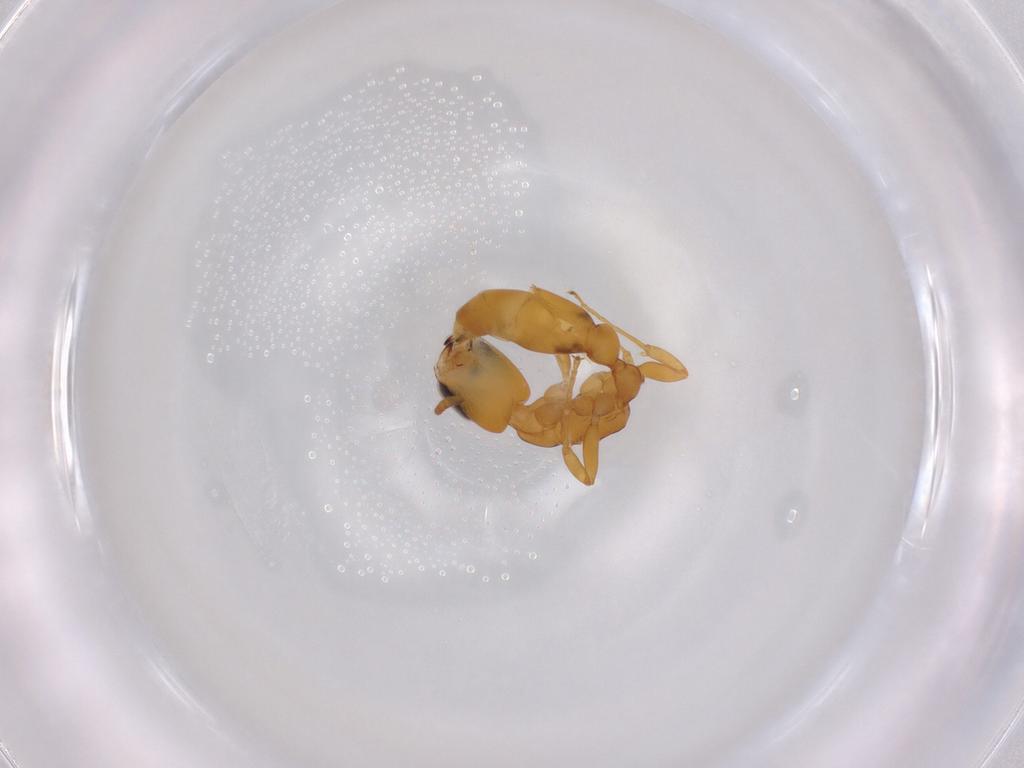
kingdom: Animalia
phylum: Arthropoda
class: Insecta
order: Hymenoptera
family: Formicidae
